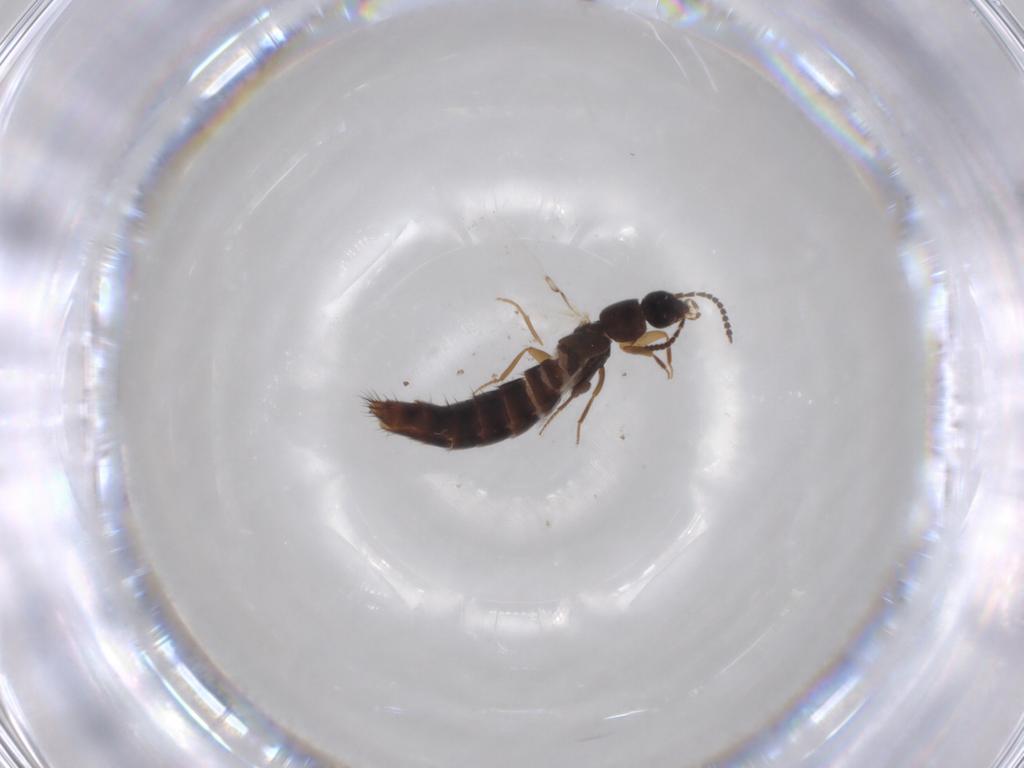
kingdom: Animalia
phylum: Arthropoda
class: Insecta
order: Coleoptera
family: Staphylinidae
